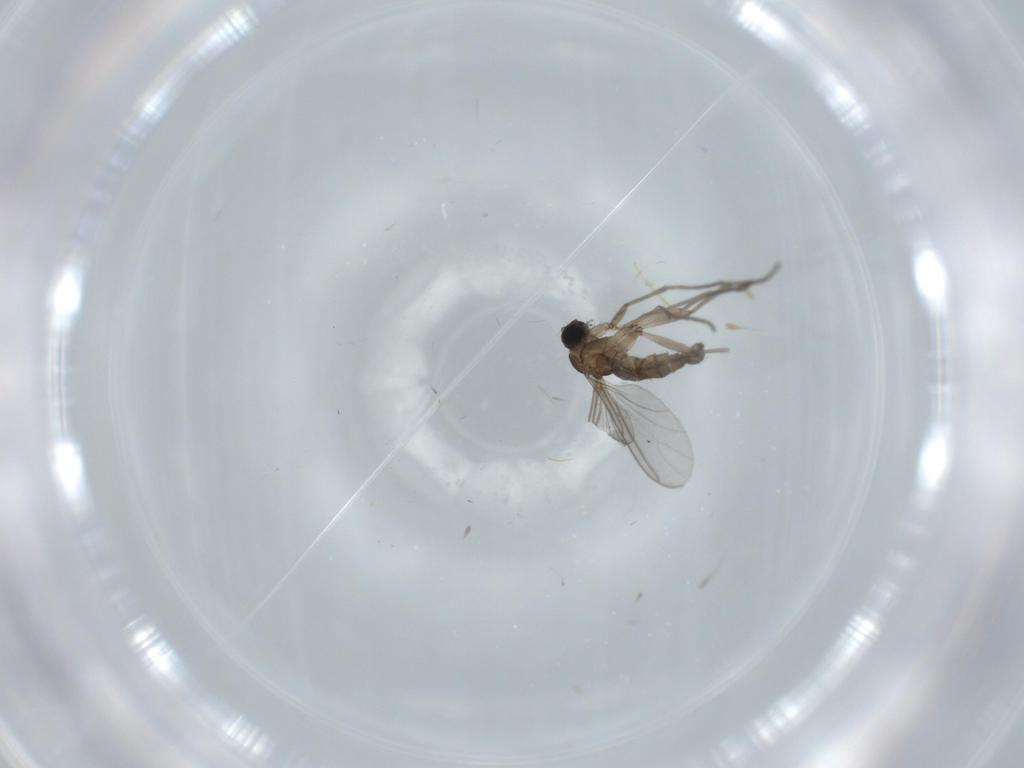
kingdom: Animalia
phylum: Arthropoda
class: Insecta
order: Diptera
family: Sciaridae
